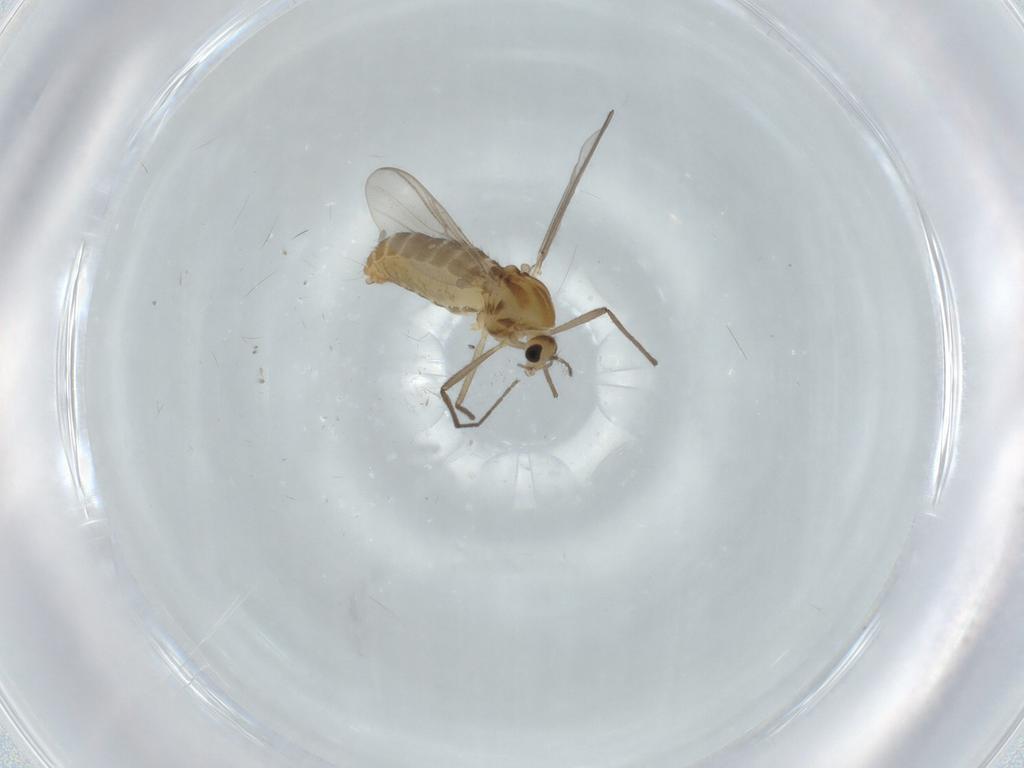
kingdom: Animalia
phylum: Arthropoda
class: Insecta
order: Diptera
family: Chironomidae
